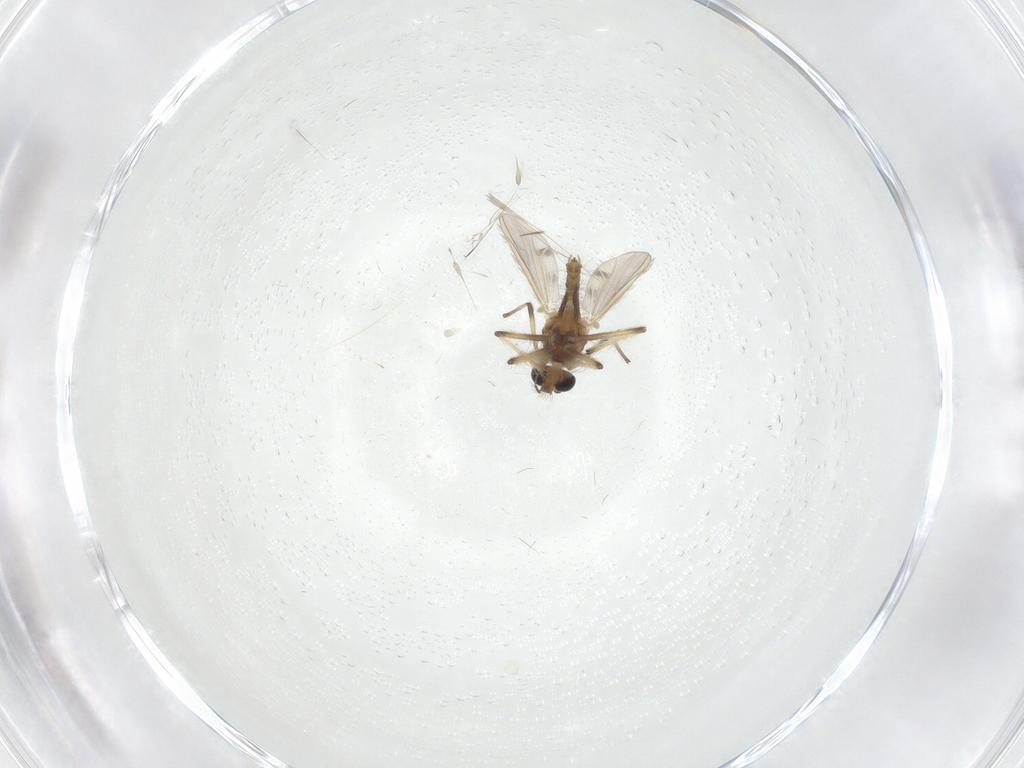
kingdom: Animalia
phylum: Arthropoda
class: Insecta
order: Diptera
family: Chironomidae
